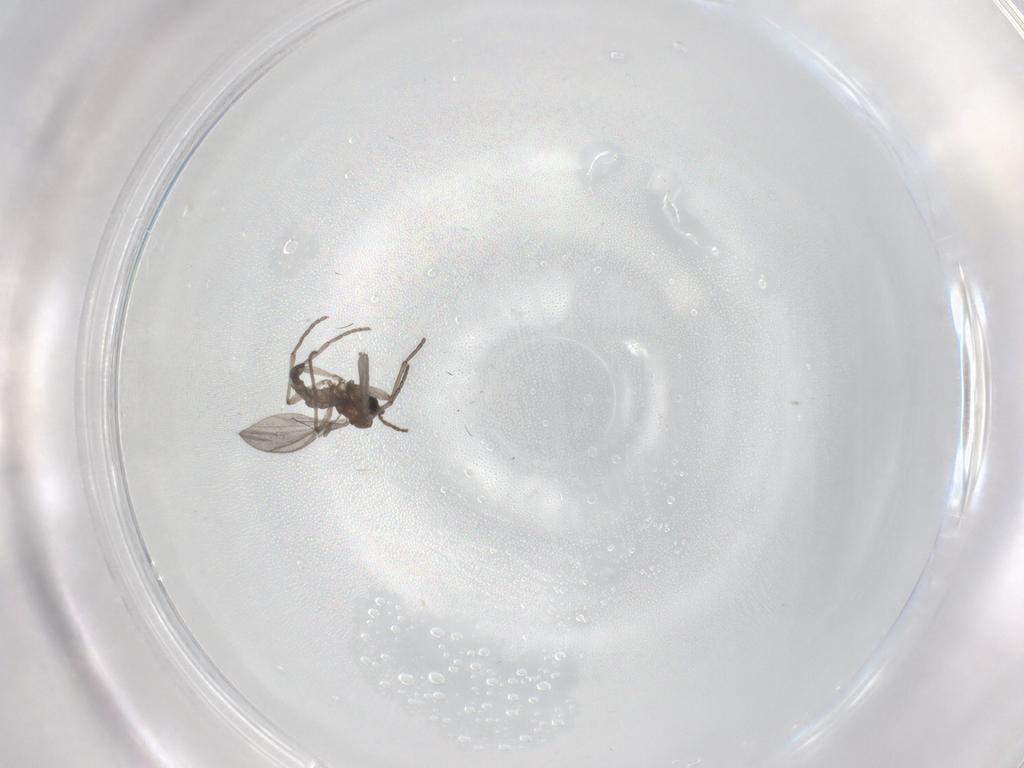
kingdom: Animalia
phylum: Arthropoda
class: Insecta
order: Diptera
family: Sciaridae
